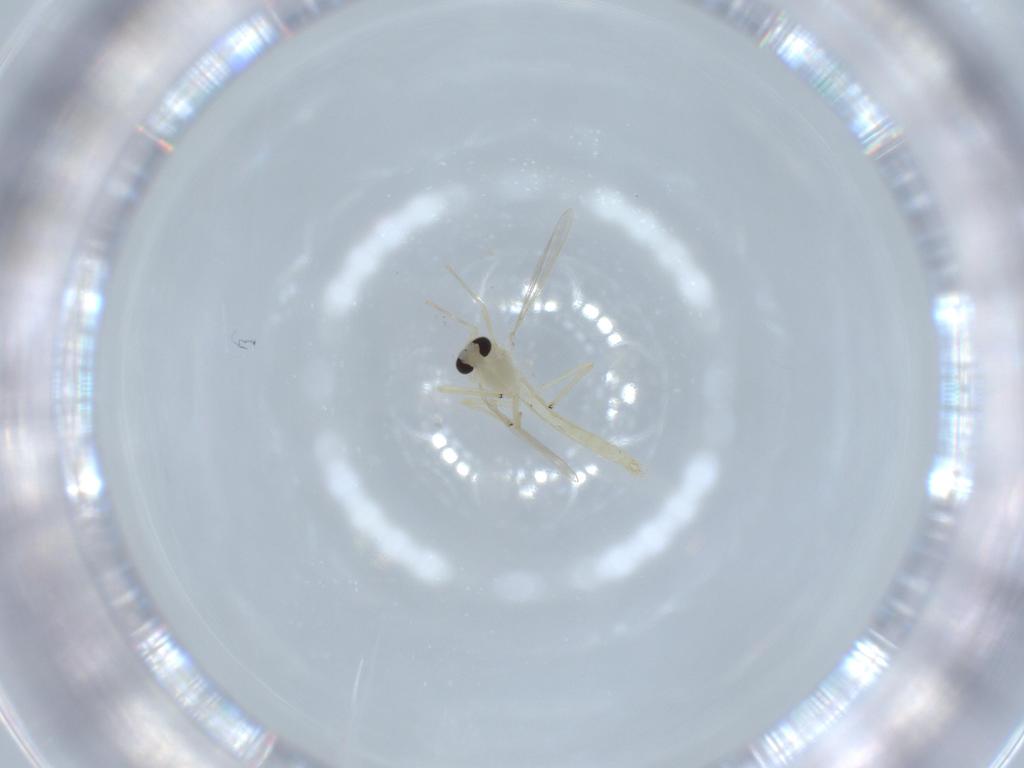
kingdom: Animalia
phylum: Arthropoda
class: Insecta
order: Diptera
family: Chironomidae
